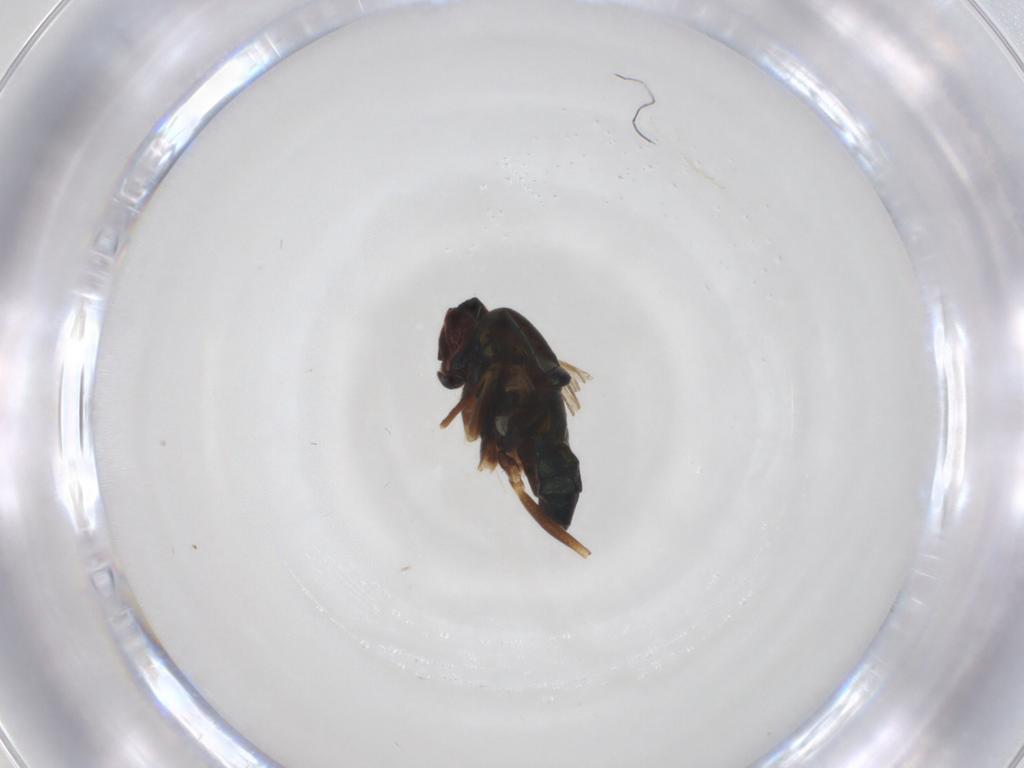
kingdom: Animalia
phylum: Arthropoda
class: Insecta
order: Diptera
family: Dolichopodidae
